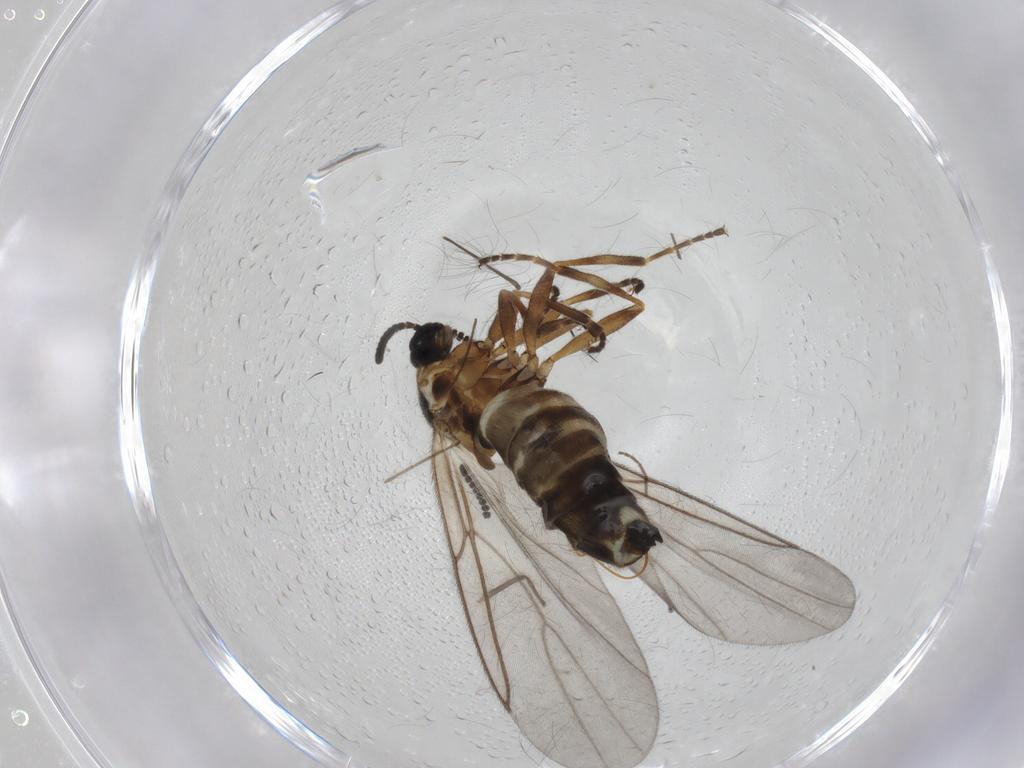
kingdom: Animalia
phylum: Arthropoda
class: Insecta
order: Diptera
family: Scatopsidae
